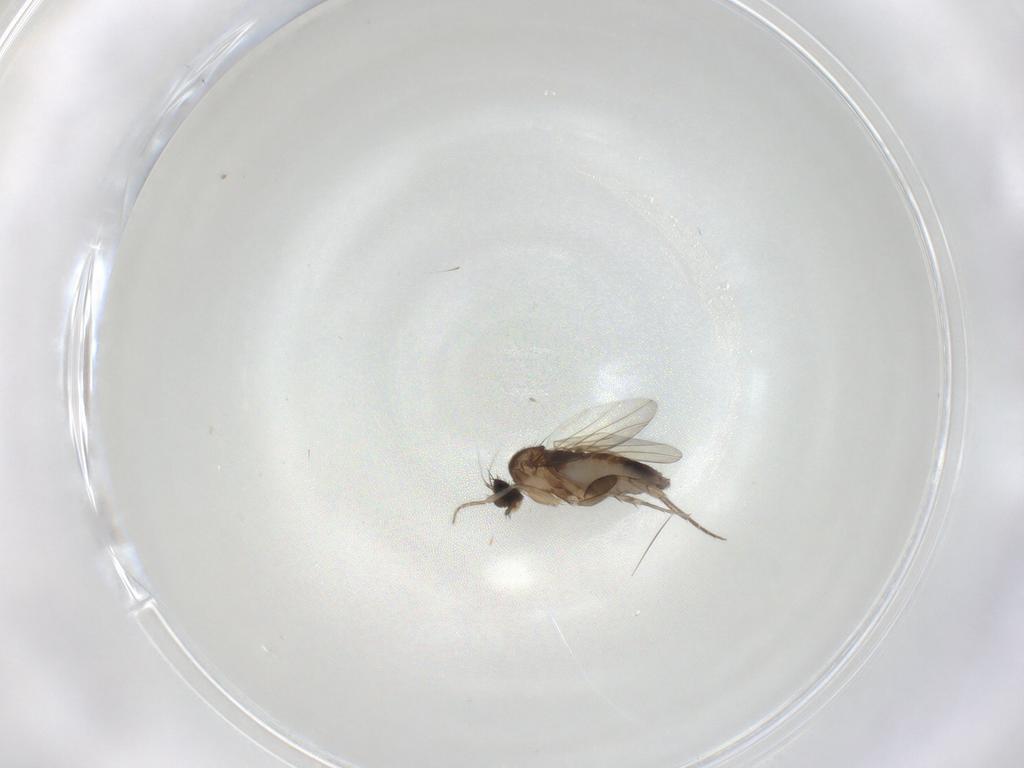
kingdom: Animalia
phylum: Arthropoda
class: Insecta
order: Diptera
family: Phoridae
